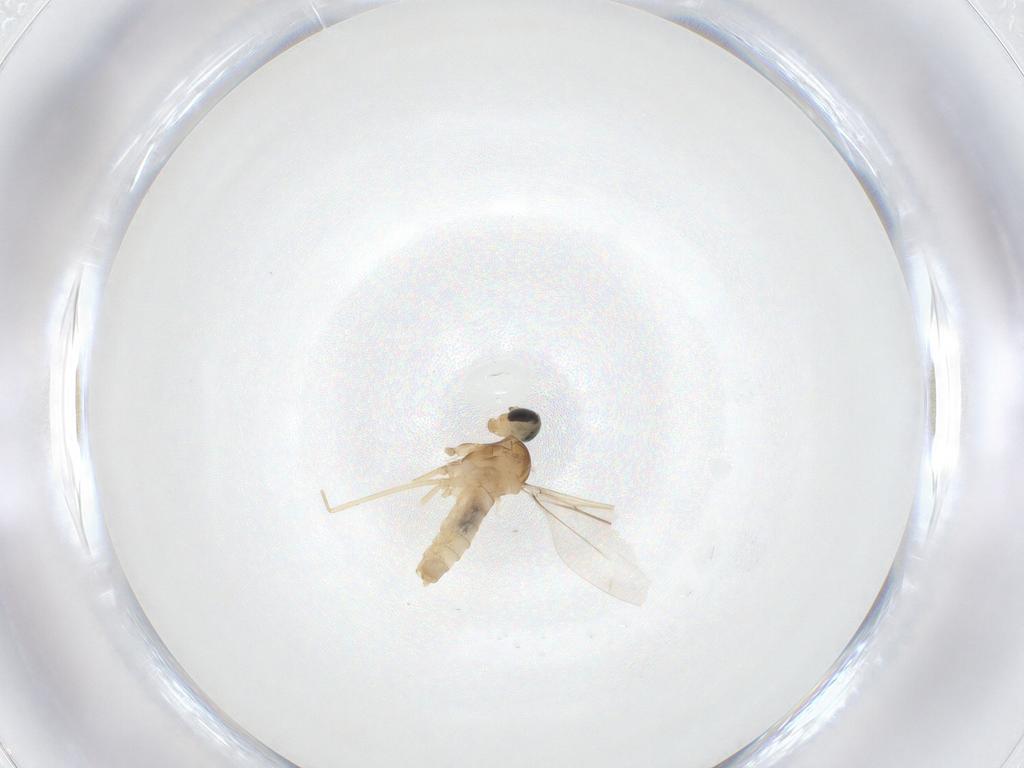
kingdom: Animalia
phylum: Arthropoda
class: Insecta
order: Diptera
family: Cecidomyiidae
